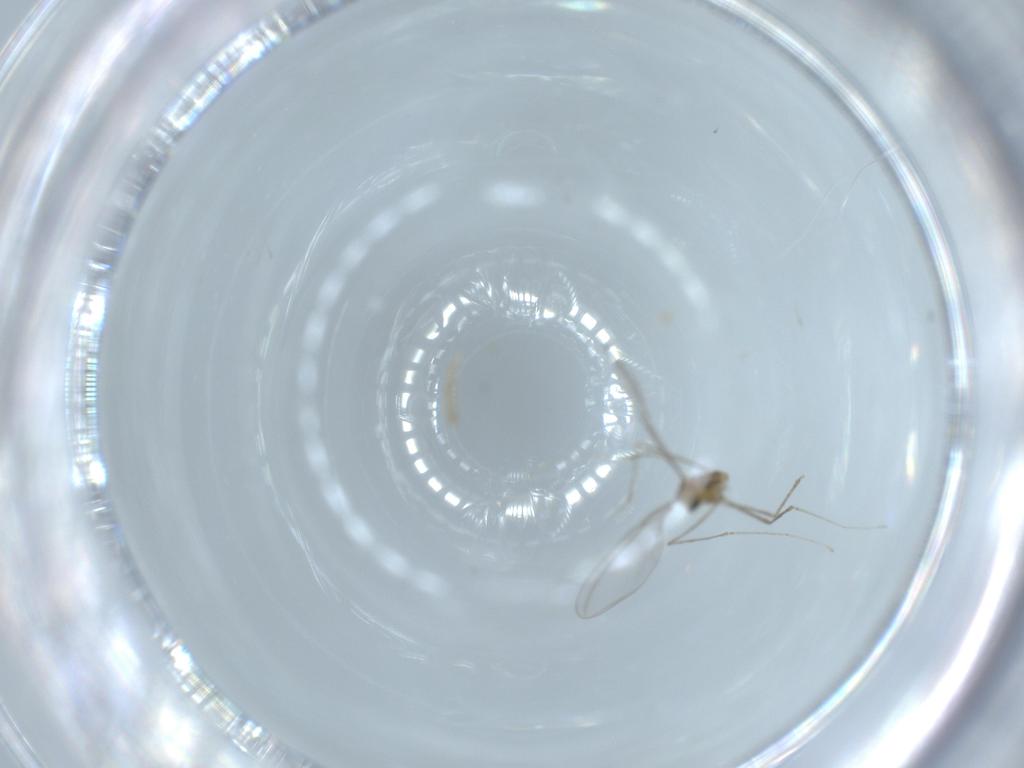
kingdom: Animalia
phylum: Arthropoda
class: Insecta
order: Diptera
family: Cecidomyiidae
